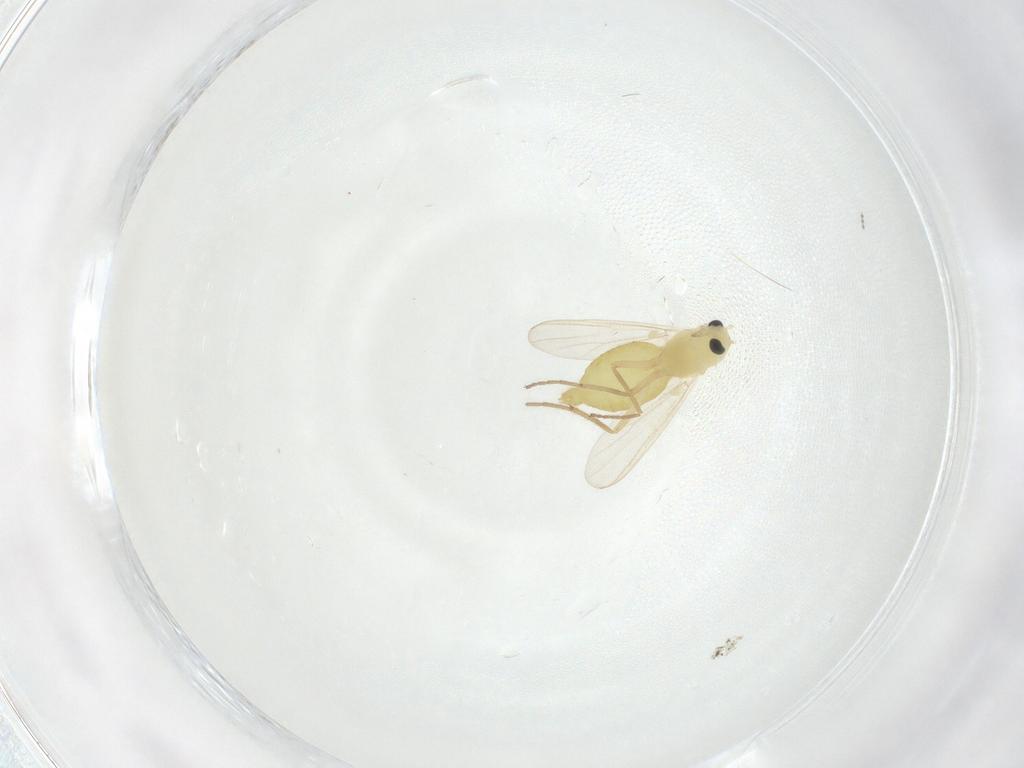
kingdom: Animalia
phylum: Arthropoda
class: Insecta
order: Diptera
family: Chironomidae
